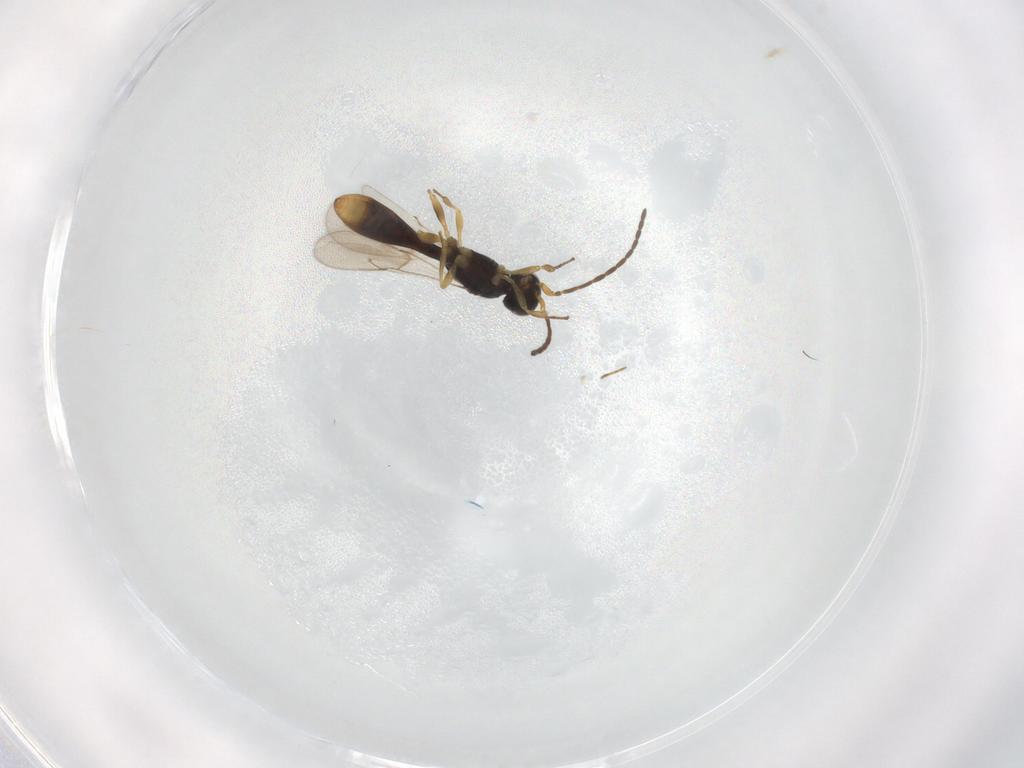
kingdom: Animalia
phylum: Arthropoda
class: Insecta
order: Hymenoptera
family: Scelionidae
